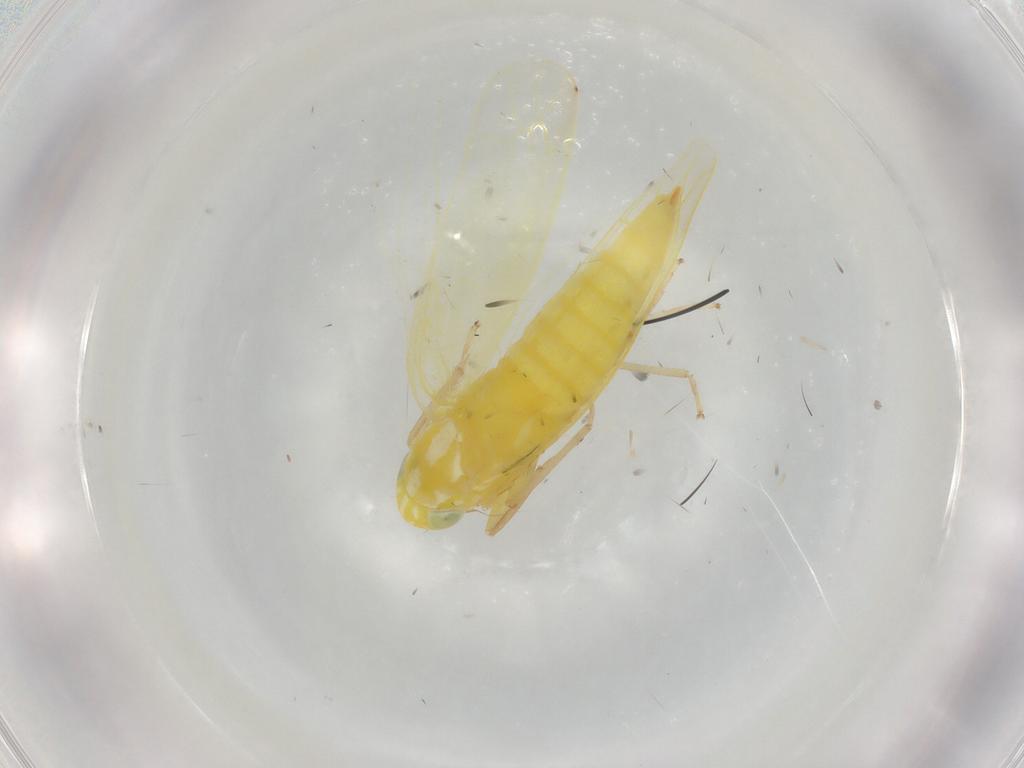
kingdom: Animalia
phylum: Arthropoda
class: Insecta
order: Hemiptera
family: Cicadellidae
